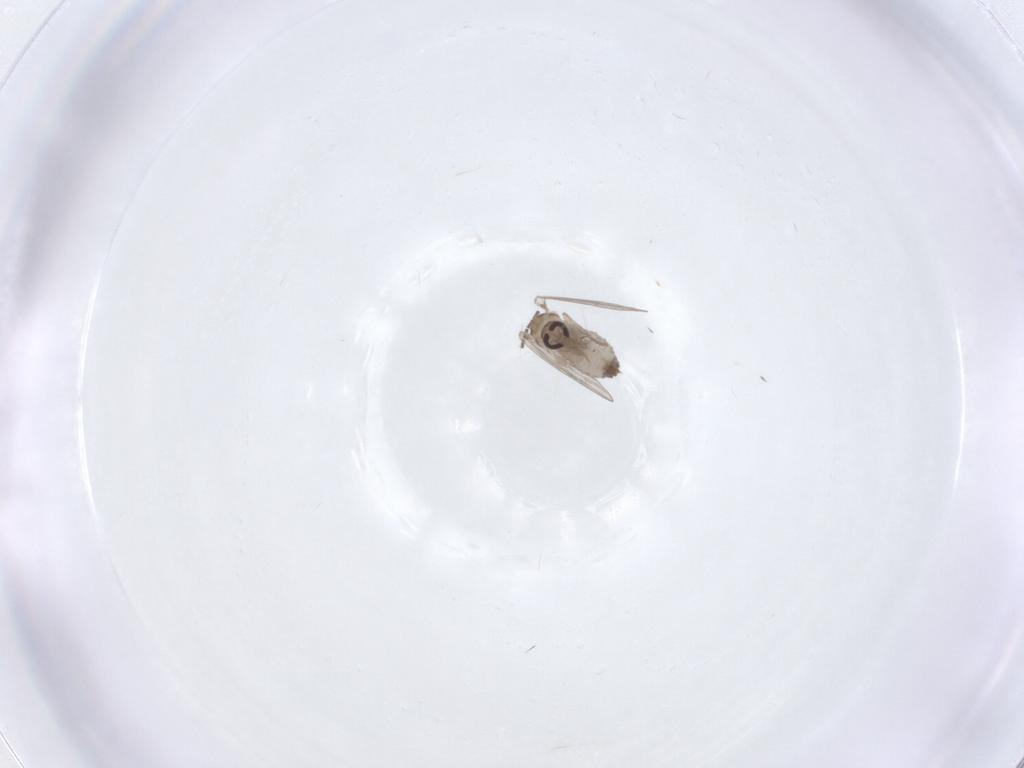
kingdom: Animalia
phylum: Arthropoda
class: Insecta
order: Diptera
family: Psychodidae
